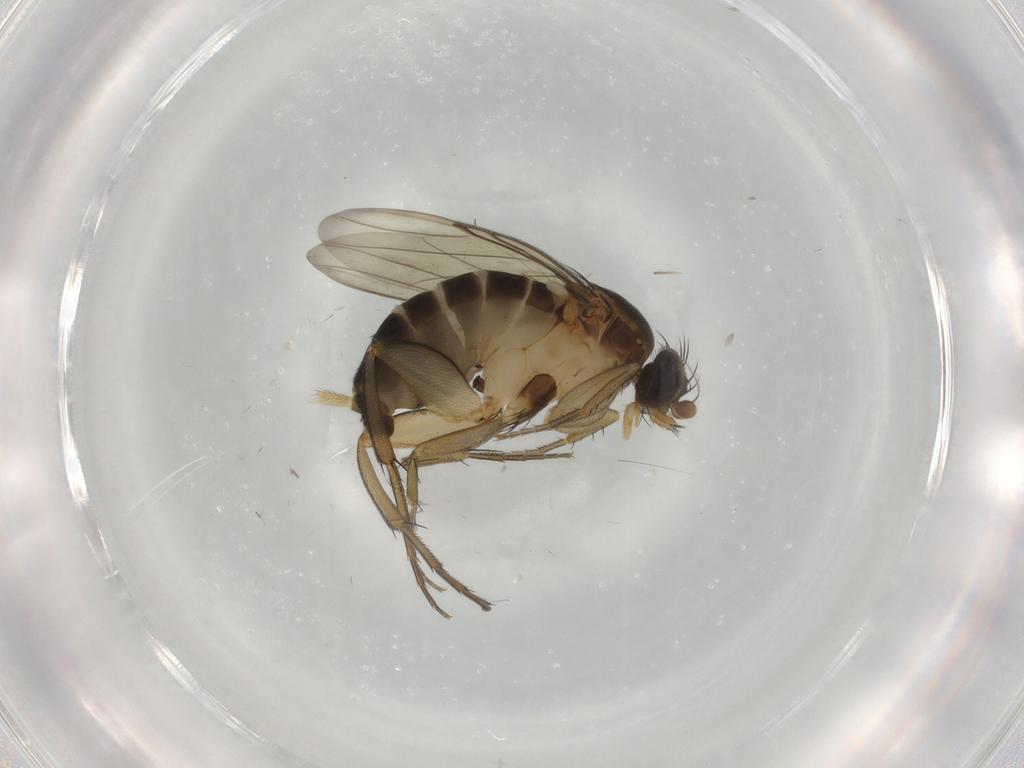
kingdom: Animalia
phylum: Arthropoda
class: Insecta
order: Diptera
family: Phoridae
